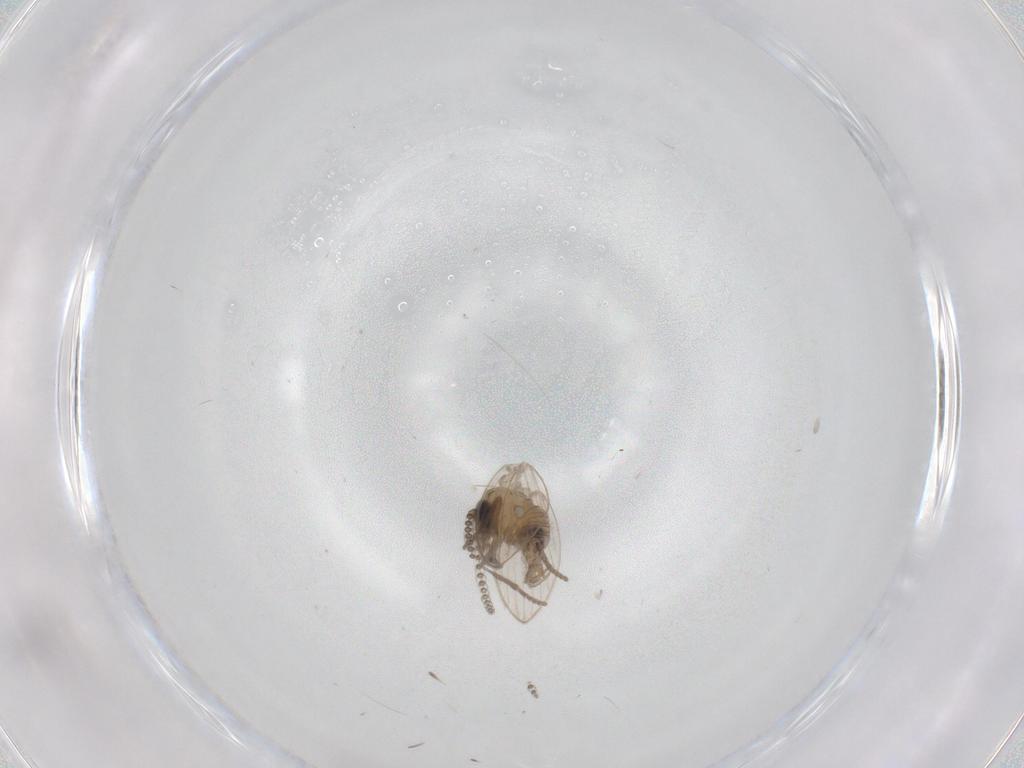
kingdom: Animalia
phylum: Arthropoda
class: Insecta
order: Diptera
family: Psychodidae
